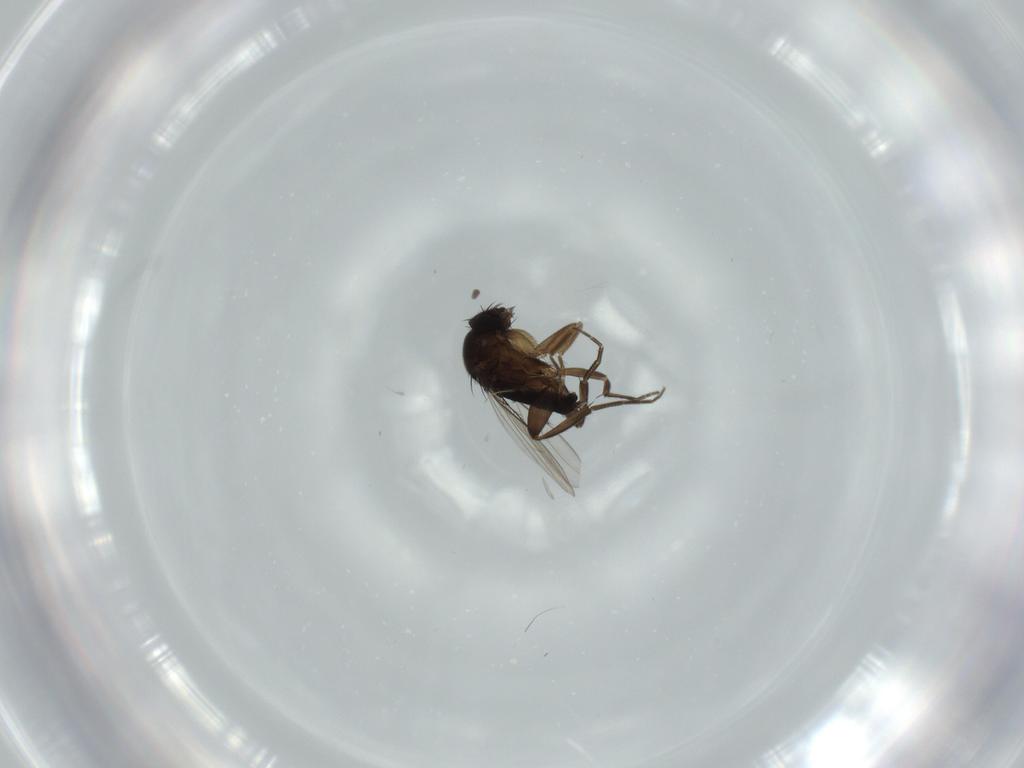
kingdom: Animalia
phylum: Arthropoda
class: Insecta
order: Diptera
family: Phoridae
